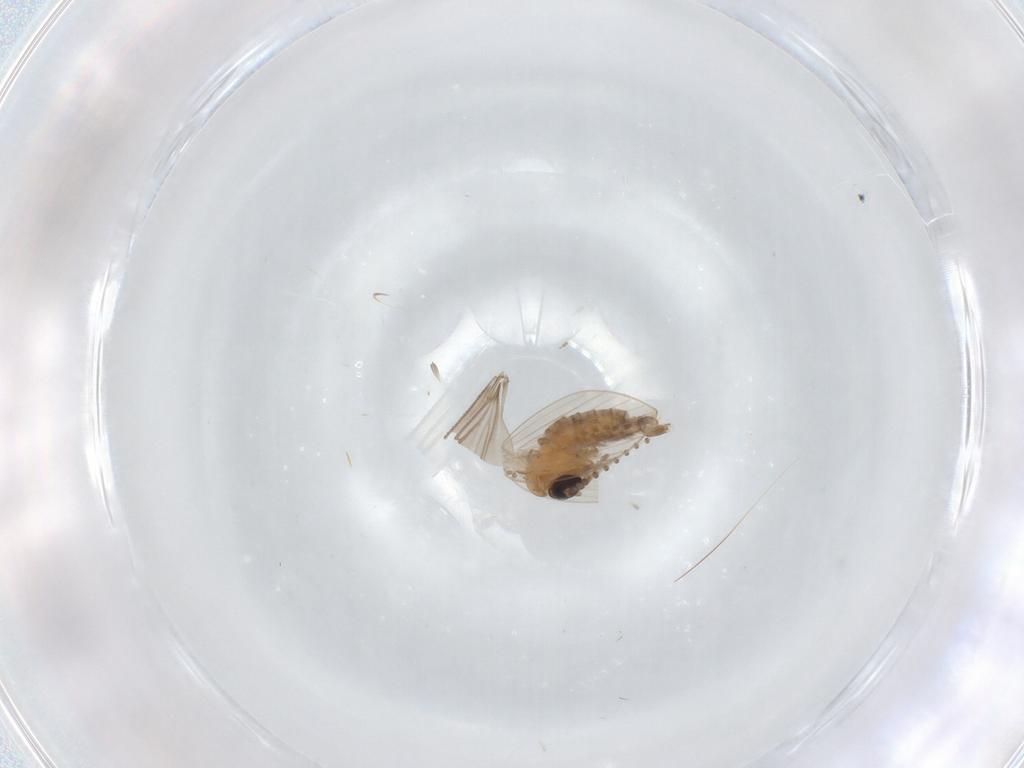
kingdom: Animalia
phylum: Arthropoda
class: Insecta
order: Diptera
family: Psychodidae
